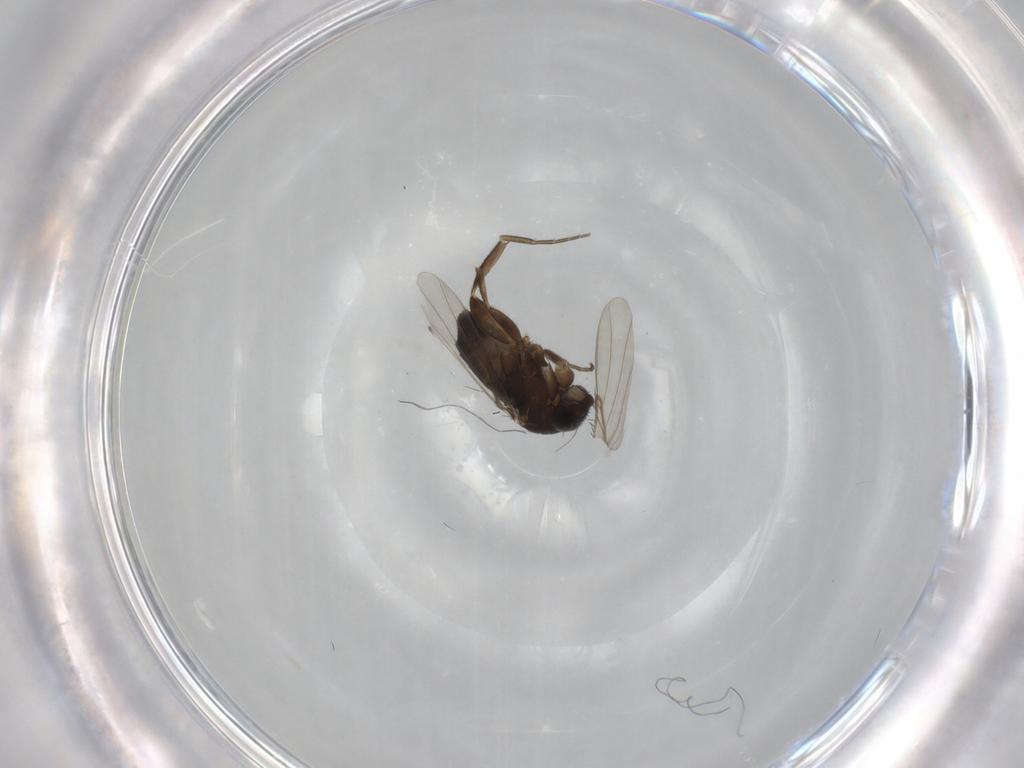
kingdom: Animalia
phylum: Arthropoda
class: Insecta
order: Diptera
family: Phoridae
